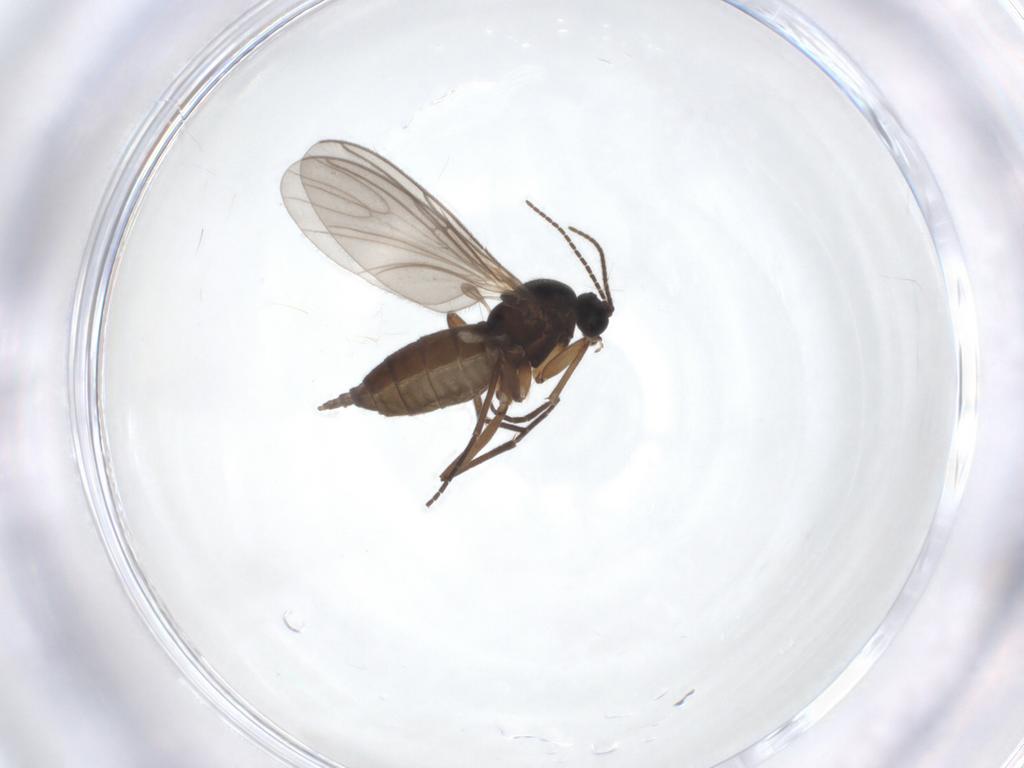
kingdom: Animalia
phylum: Arthropoda
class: Insecta
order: Diptera
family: Sciaridae
